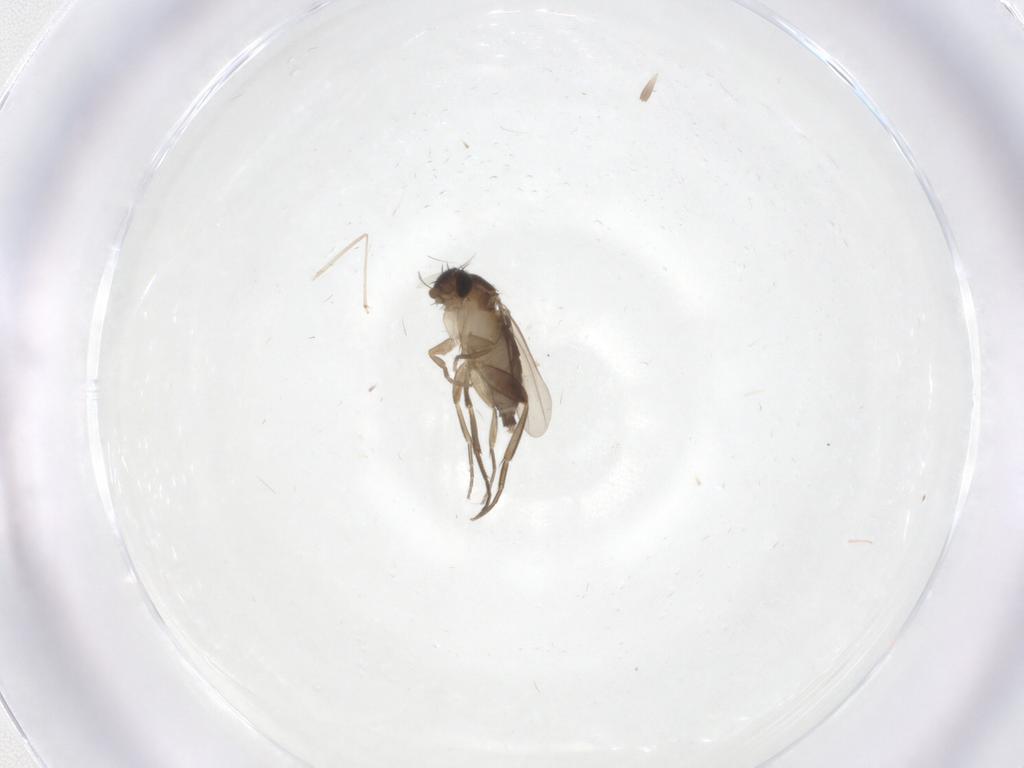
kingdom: Animalia
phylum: Arthropoda
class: Insecta
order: Diptera
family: Phoridae
